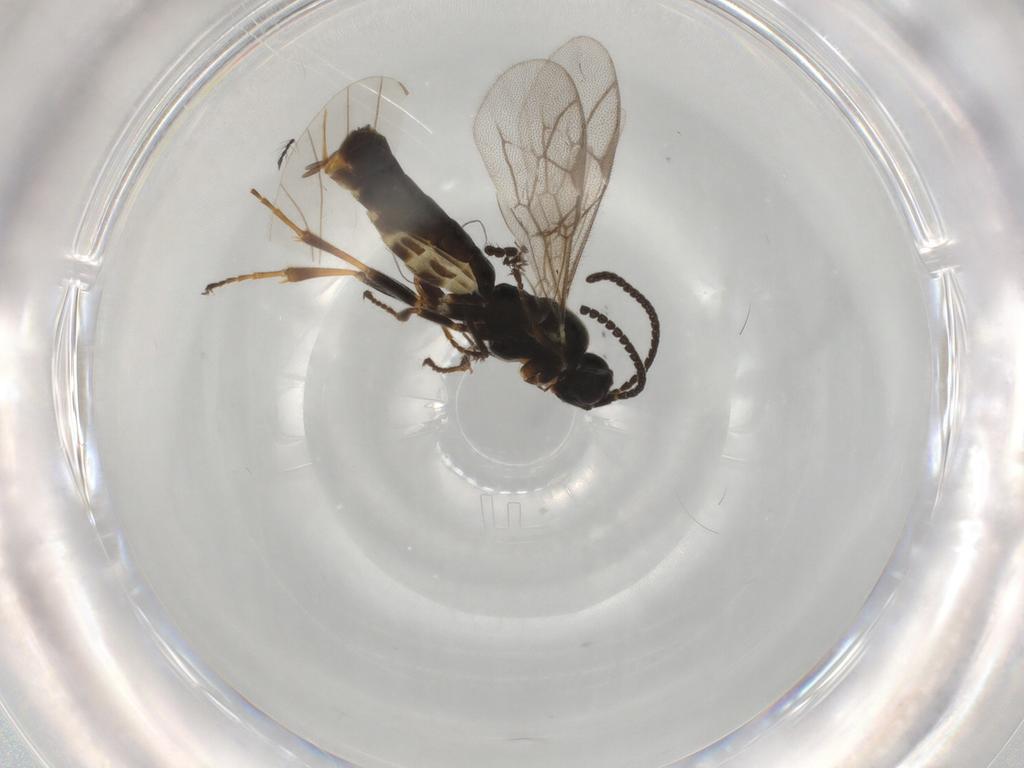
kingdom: Animalia
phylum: Arthropoda
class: Insecta
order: Hymenoptera
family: Ichneumonidae
